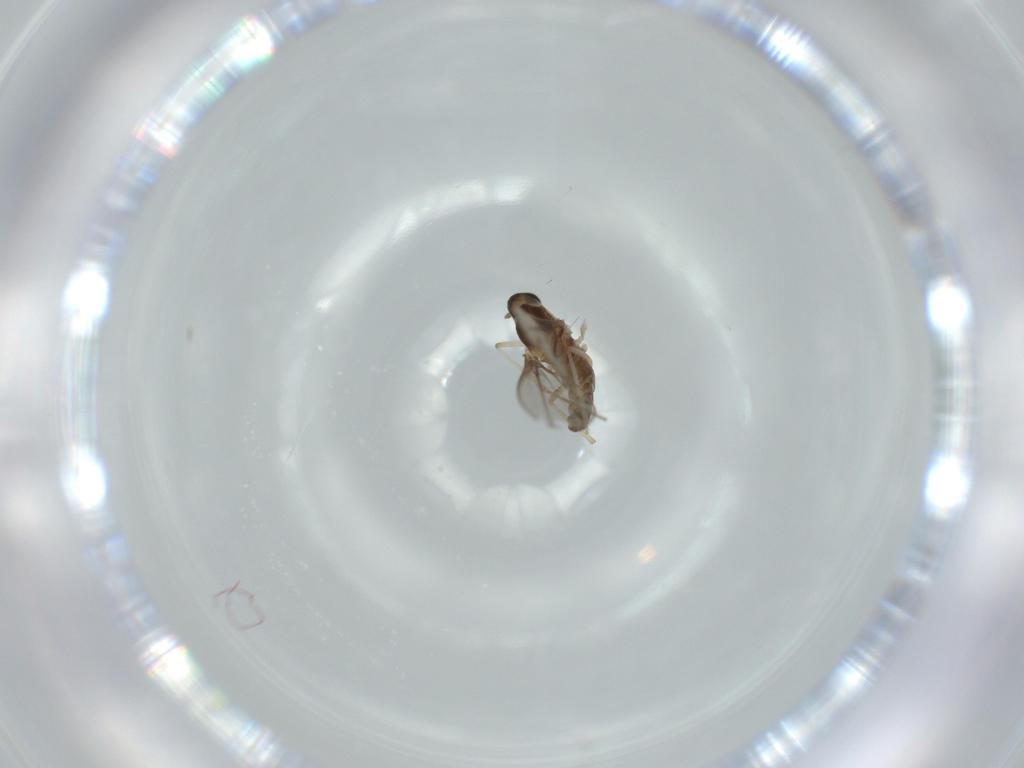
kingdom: Animalia
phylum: Arthropoda
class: Insecta
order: Diptera
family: Cecidomyiidae
